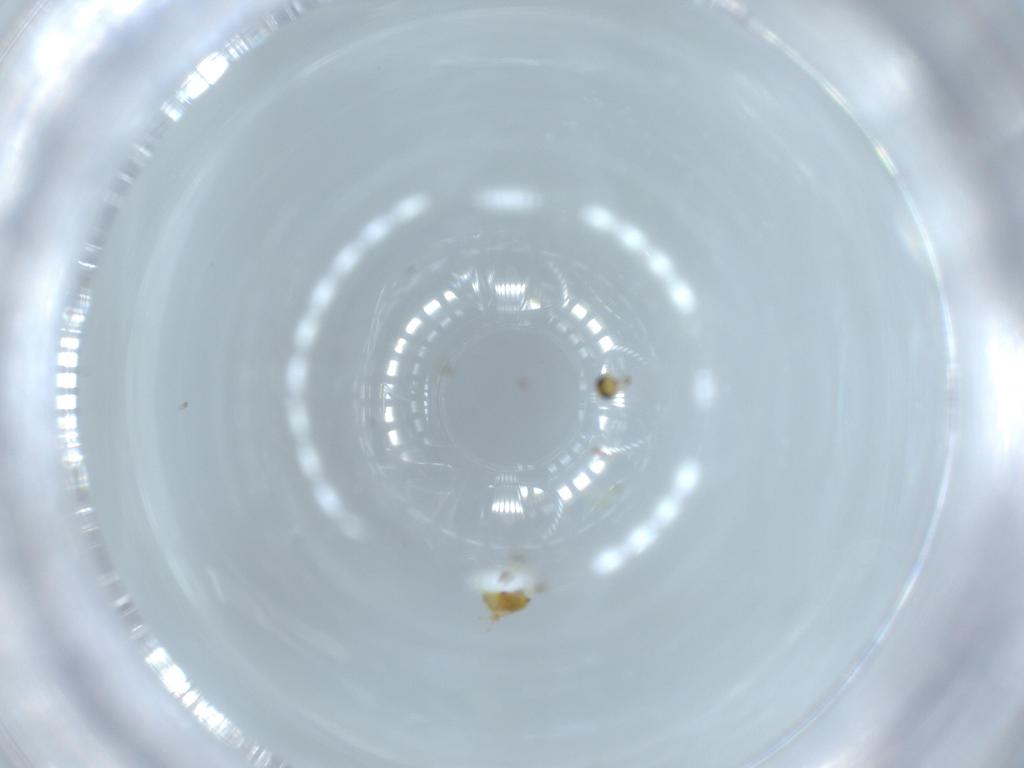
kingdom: Animalia
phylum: Arthropoda
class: Insecta
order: Hymenoptera
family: Signiphoridae
